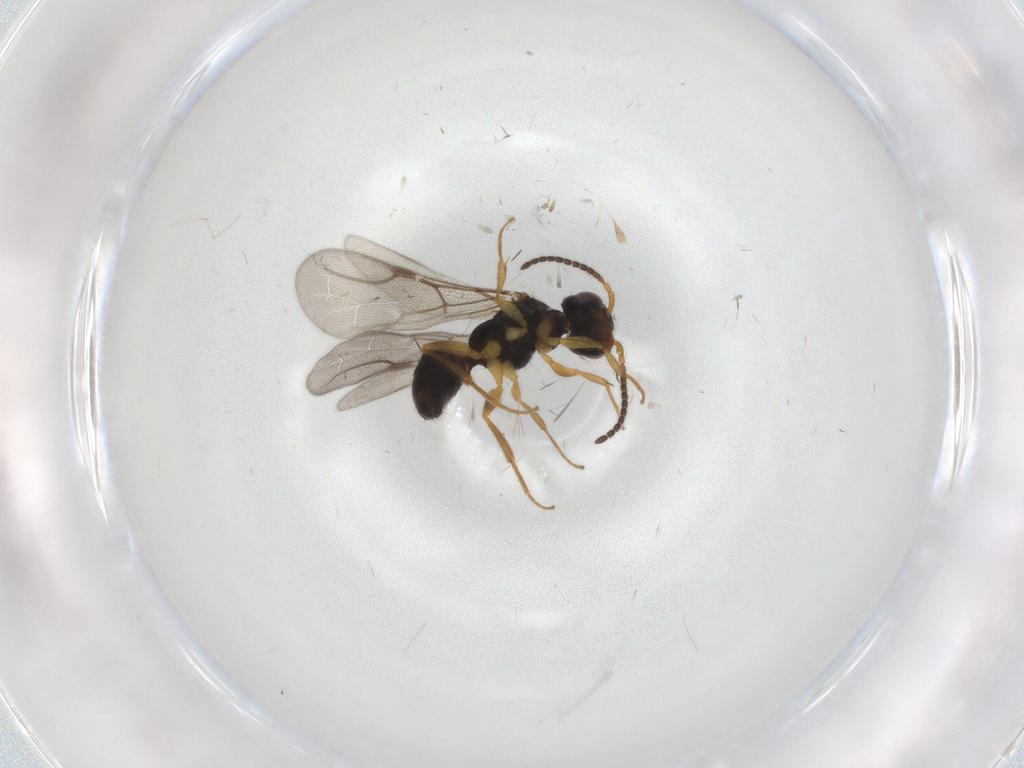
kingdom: Animalia
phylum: Arthropoda
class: Insecta
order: Hymenoptera
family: Bethylidae
